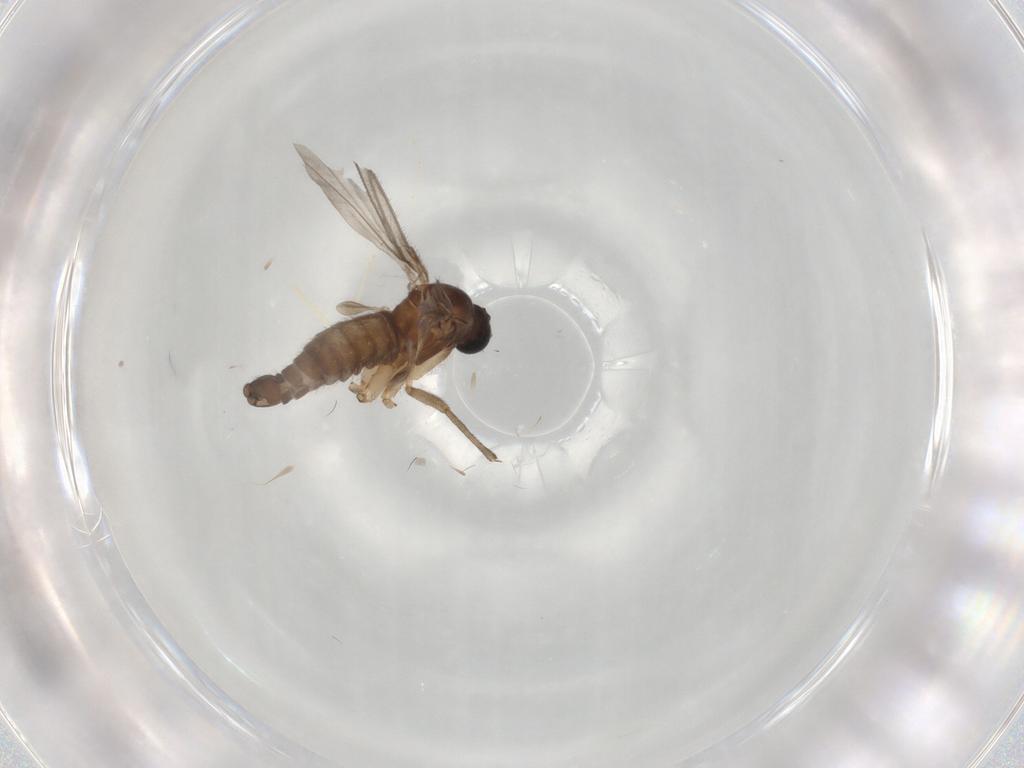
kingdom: Animalia
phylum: Arthropoda
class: Insecta
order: Diptera
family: Sciaridae
